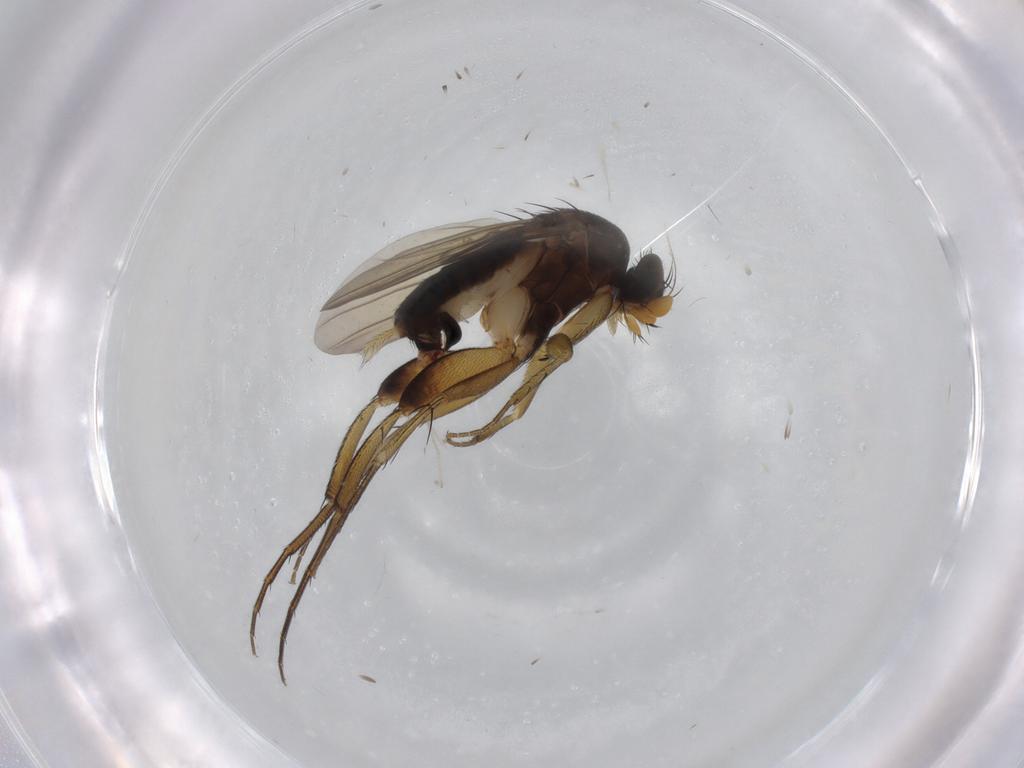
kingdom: Animalia
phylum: Arthropoda
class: Insecta
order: Diptera
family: Phoridae
